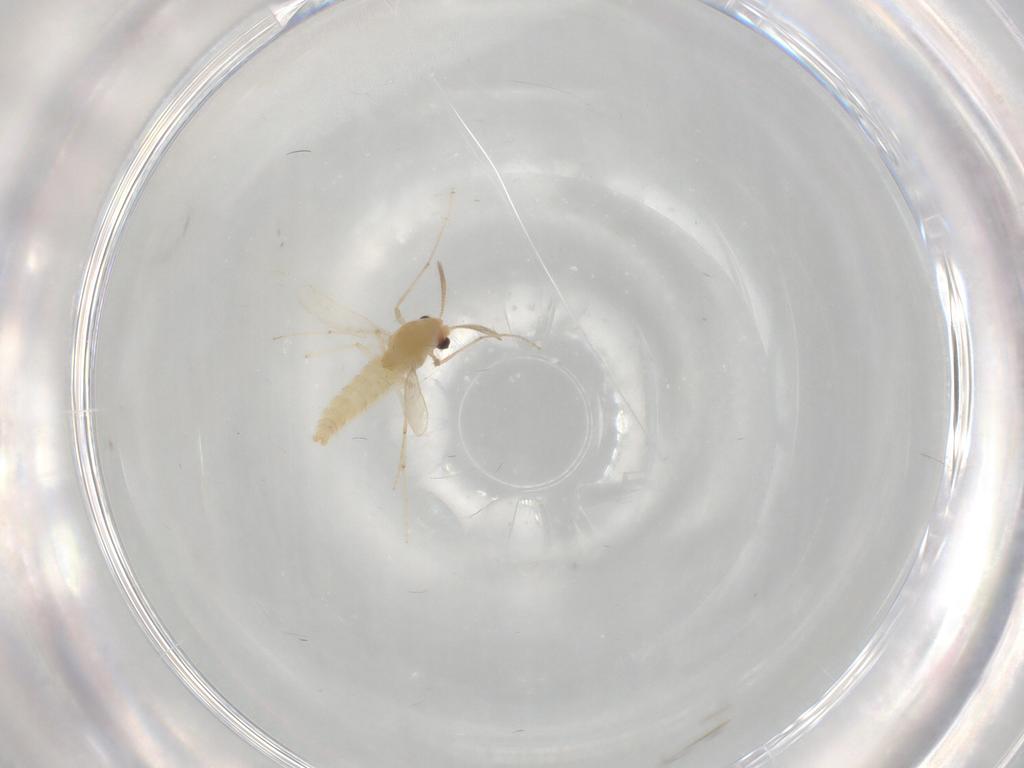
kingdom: Animalia
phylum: Arthropoda
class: Insecta
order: Diptera
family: Chironomidae
